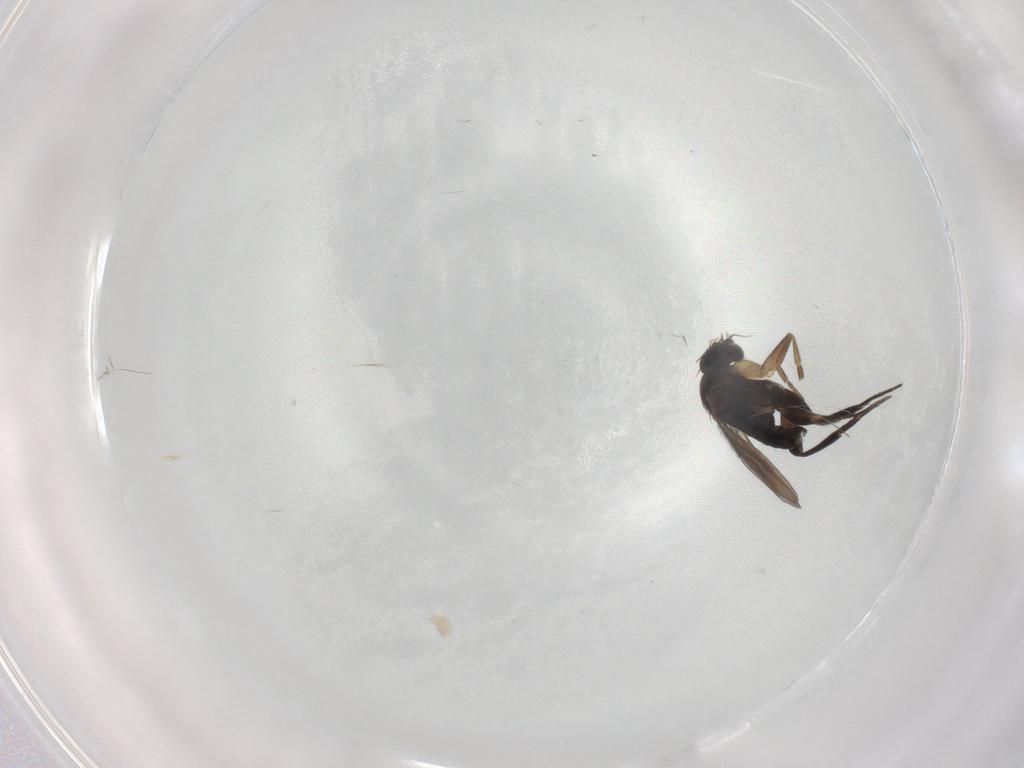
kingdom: Animalia
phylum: Arthropoda
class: Insecta
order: Diptera
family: Phoridae
